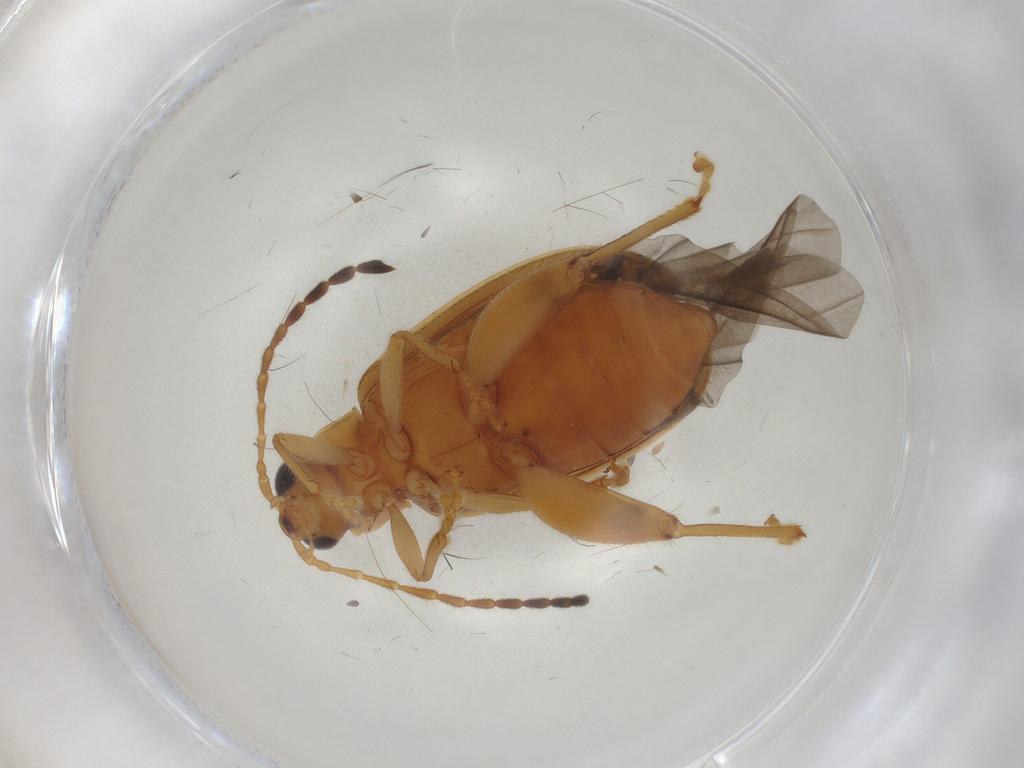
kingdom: Animalia
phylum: Arthropoda
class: Insecta
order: Coleoptera
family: Chrysomelidae
